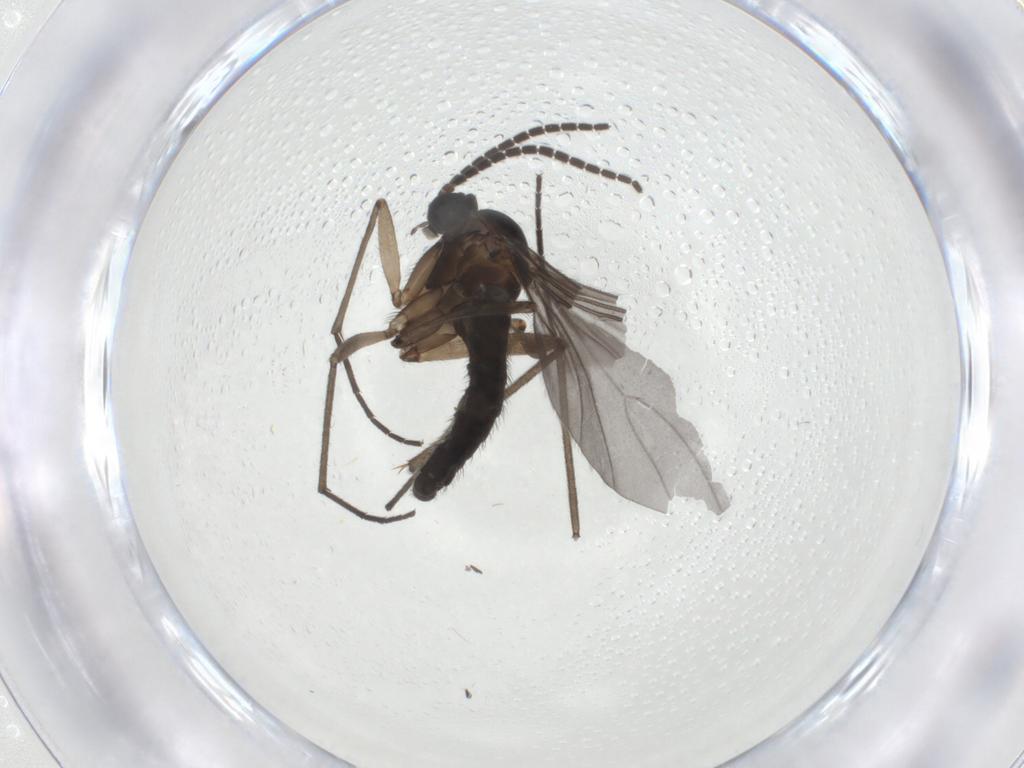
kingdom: Animalia
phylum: Arthropoda
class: Insecta
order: Diptera
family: Sciaridae
